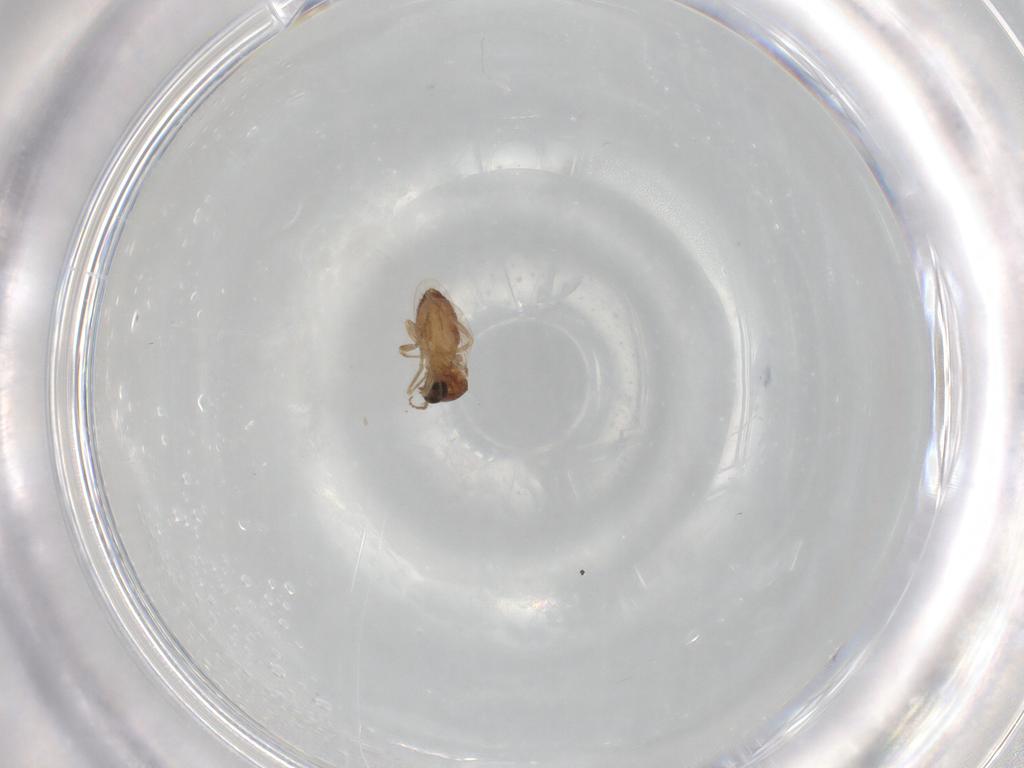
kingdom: Animalia
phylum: Arthropoda
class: Insecta
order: Diptera
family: Ceratopogonidae
